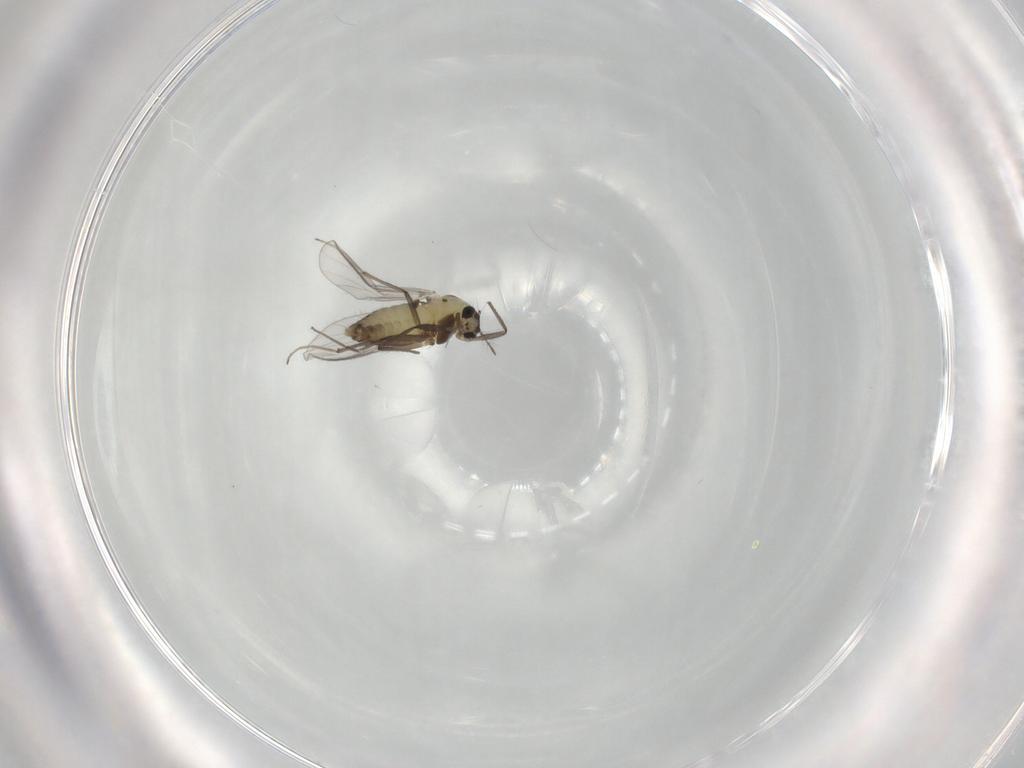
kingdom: Animalia
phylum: Arthropoda
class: Insecta
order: Diptera
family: Chironomidae
